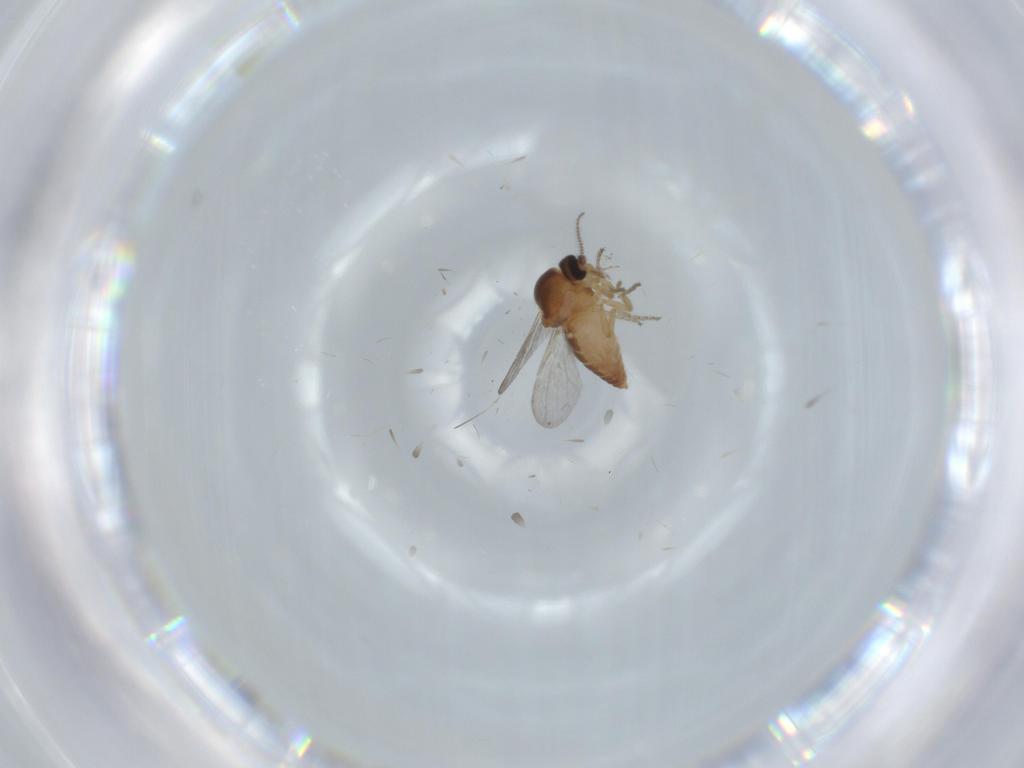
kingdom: Animalia
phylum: Arthropoda
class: Insecta
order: Diptera
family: Ceratopogonidae
